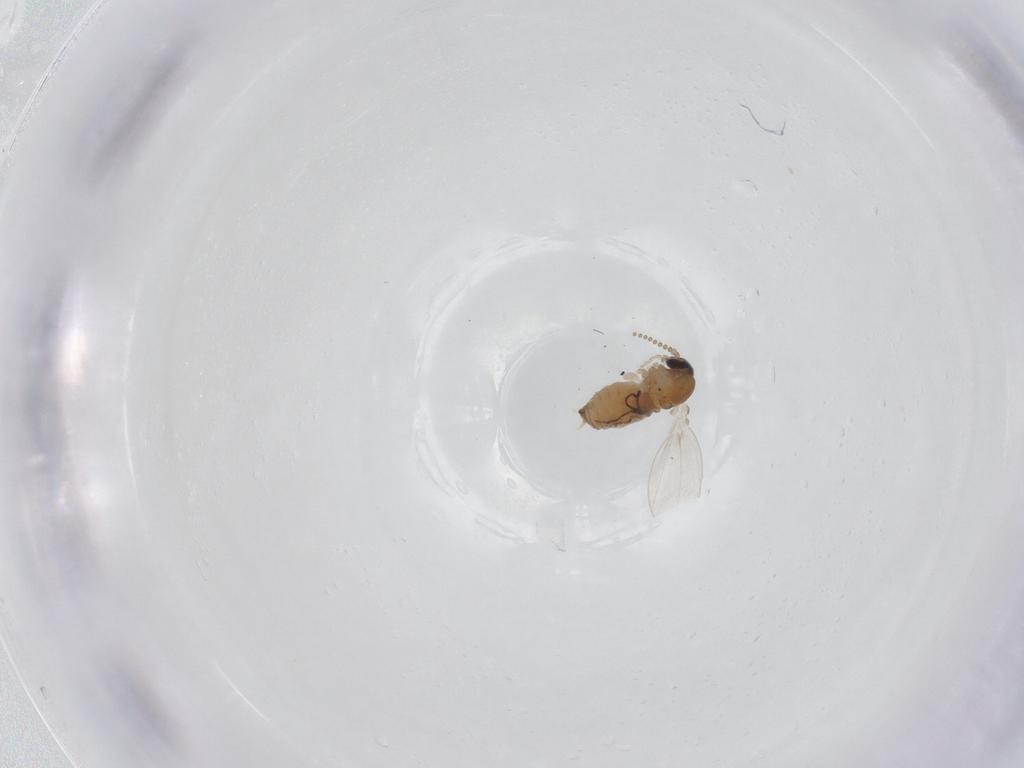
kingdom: Animalia
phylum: Arthropoda
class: Insecta
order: Diptera
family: Psychodidae
